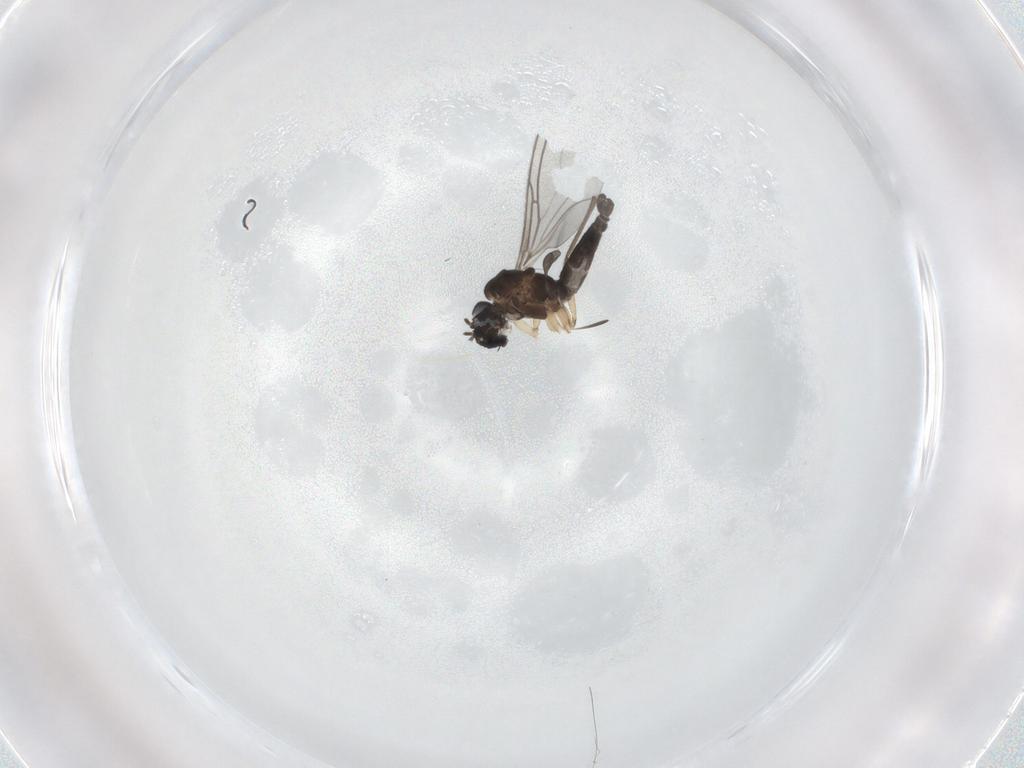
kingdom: Animalia
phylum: Arthropoda
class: Insecta
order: Diptera
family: Sciaridae
